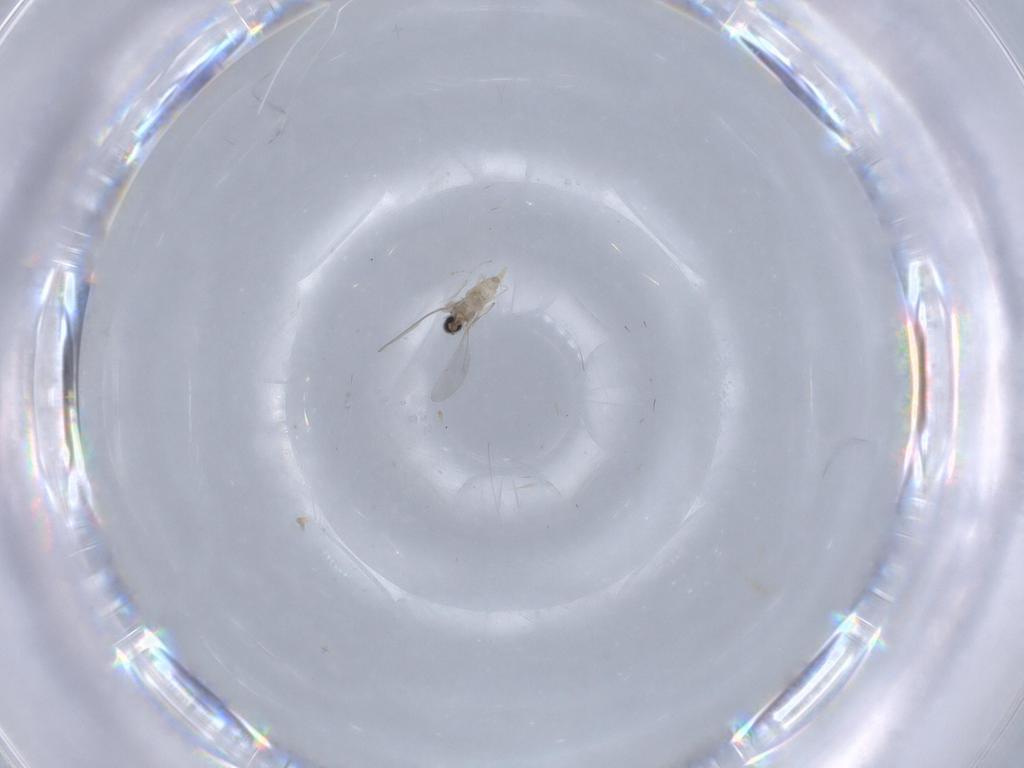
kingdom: Animalia
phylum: Arthropoda
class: Insecta
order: Diptera
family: Cecidomyiidae
